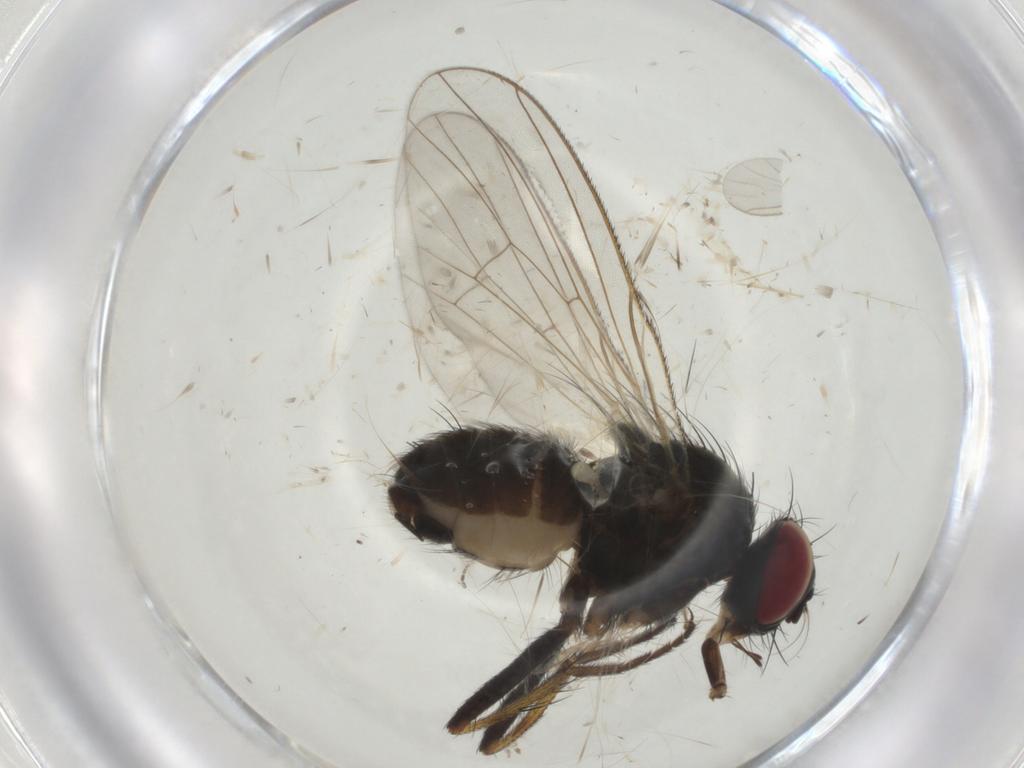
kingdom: Animalia
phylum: Arthropoda
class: Insecta
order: Diptera
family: Muscidae
